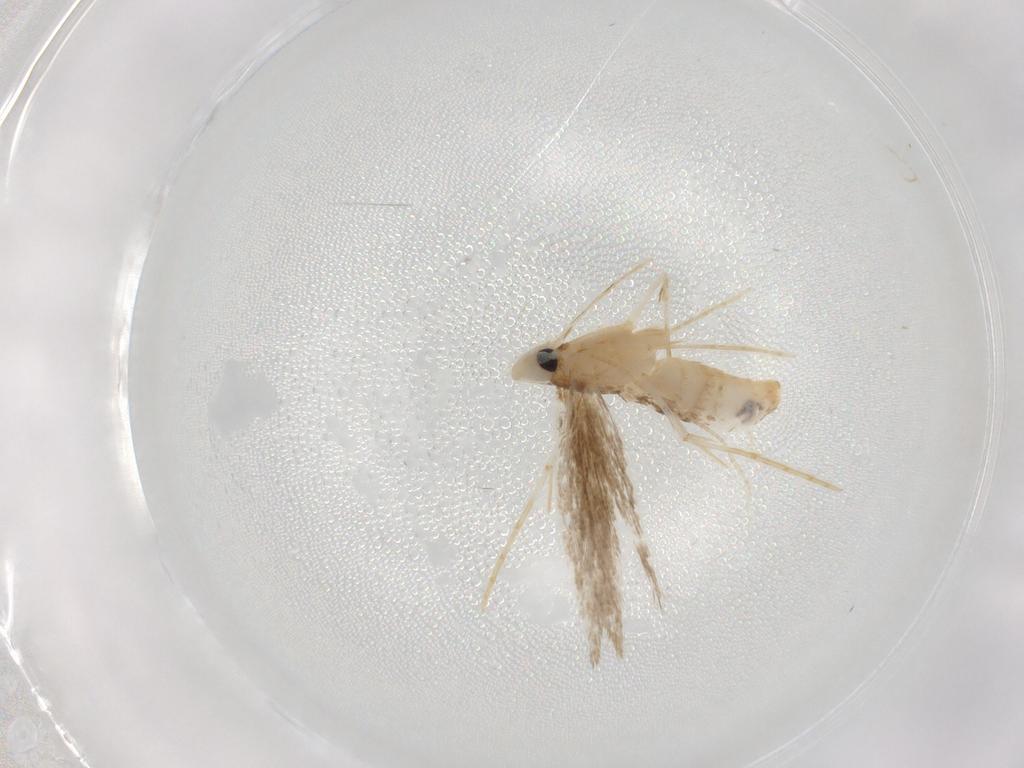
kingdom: Animalia
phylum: Arthropoda
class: Insecta
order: Lepidoptera
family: Psychidae
